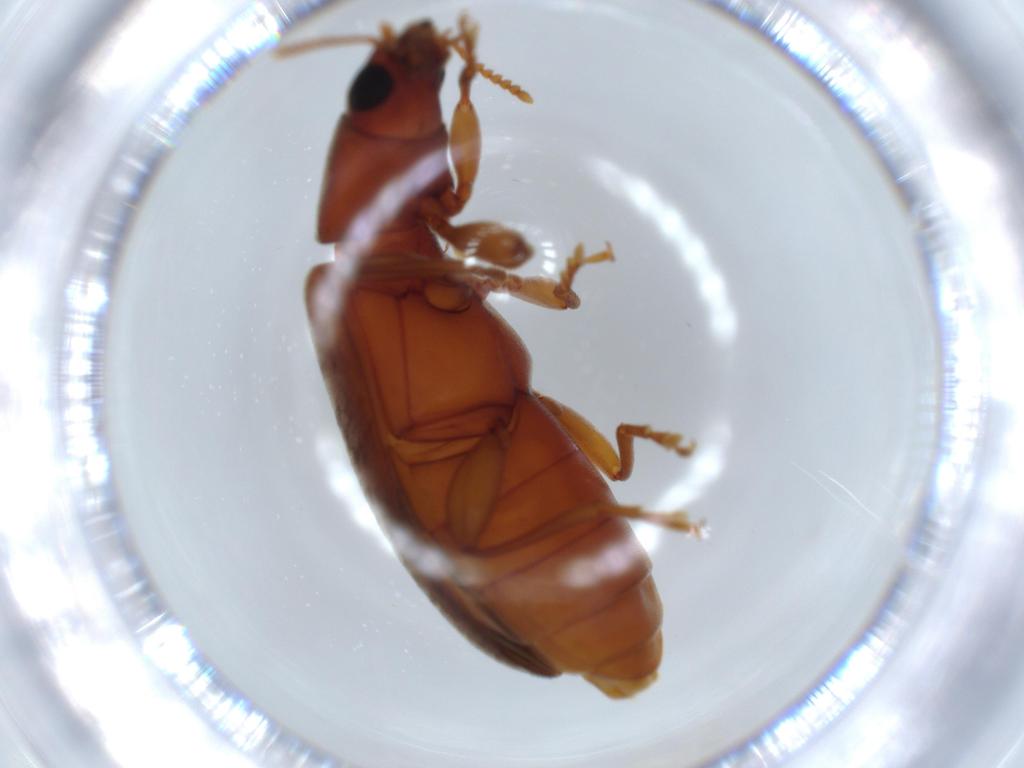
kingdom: Animalia
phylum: Arthropoda
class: Insecta
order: Coleoptera
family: Mycteridae
